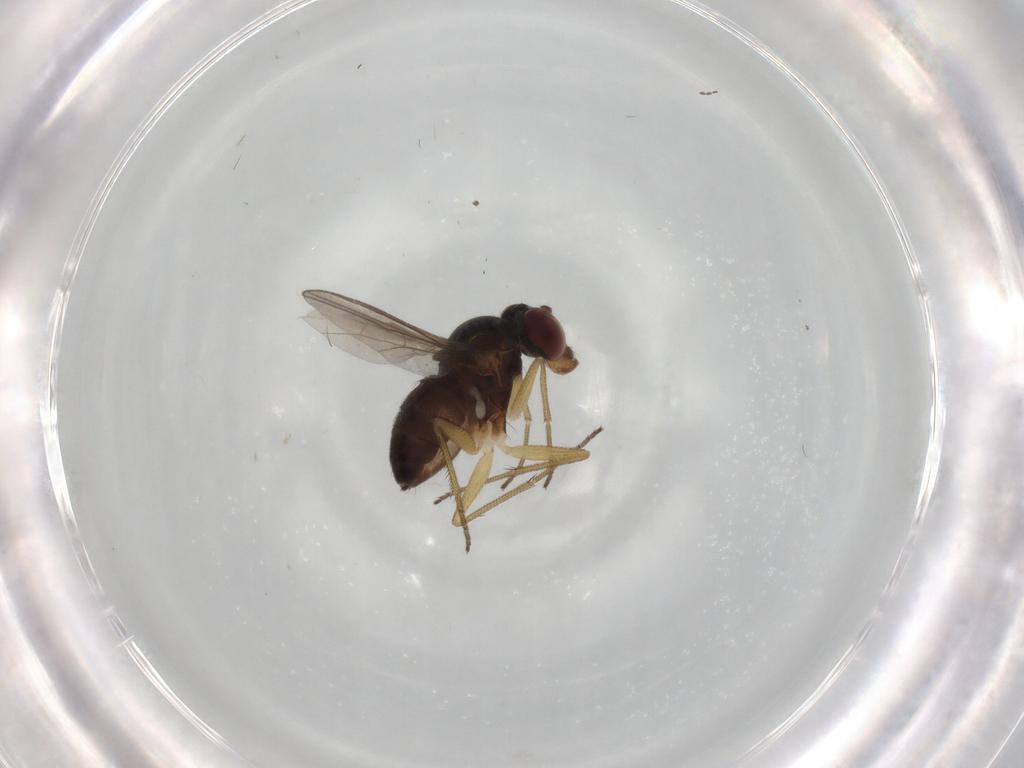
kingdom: Animalia
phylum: Arthropoda
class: Insecta
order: Diptera
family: Dolichopodidae
